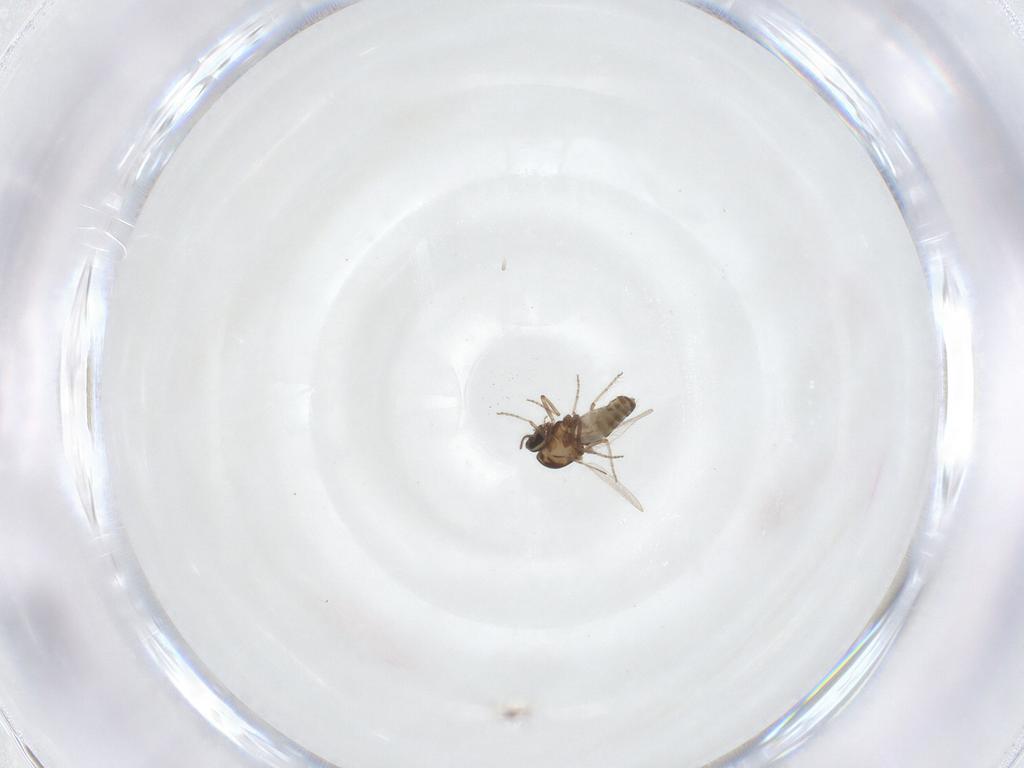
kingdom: Animalia
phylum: Arthropoda
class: Insecta
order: Diptera
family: Ceratopogonidae
